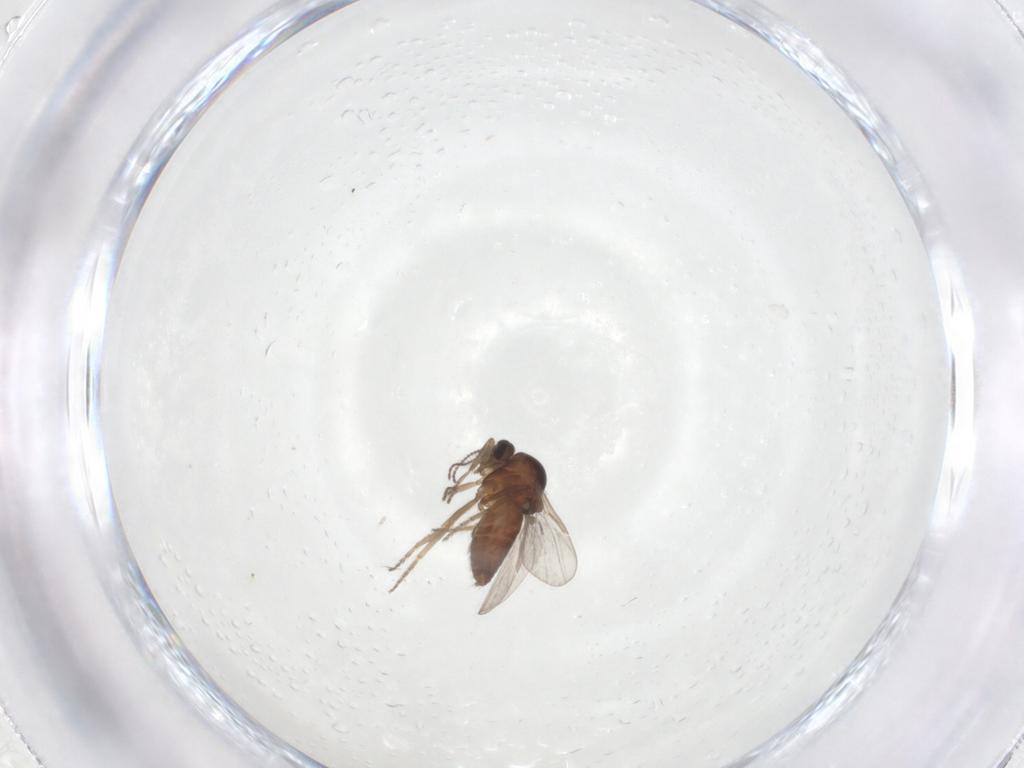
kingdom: Animalia
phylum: Arthropoda
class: Insecta
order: Diptera
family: Ceratopogonidae
